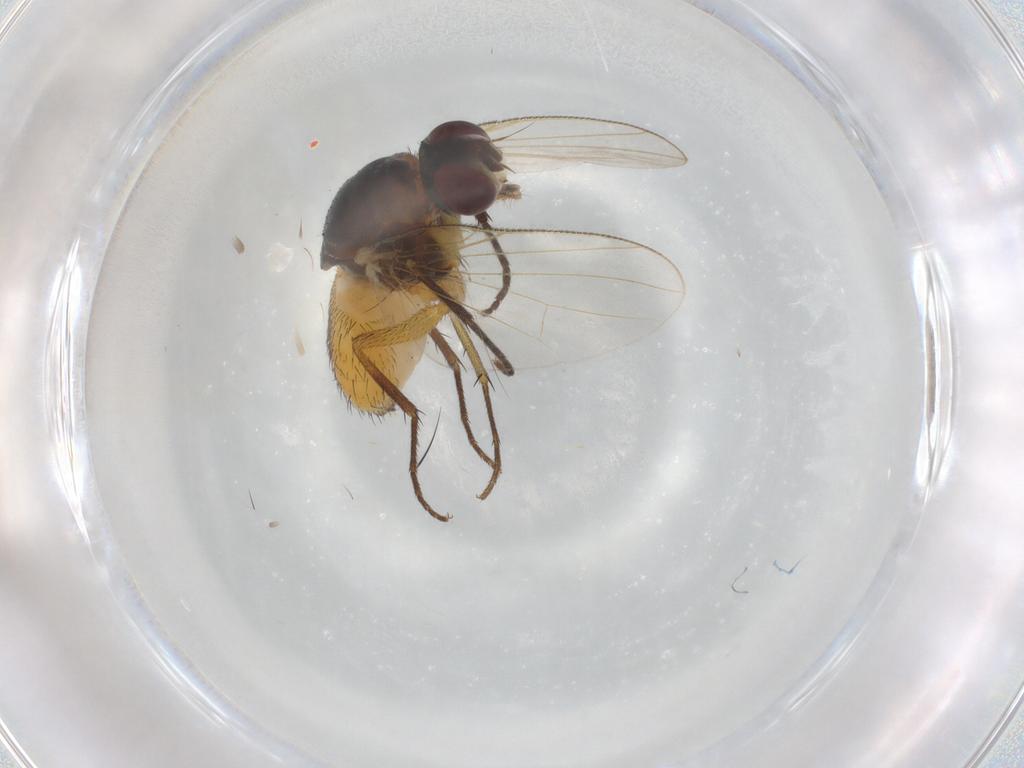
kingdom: Animalia
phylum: Arthropoda
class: Insecta
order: Diptera
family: Muscidae
